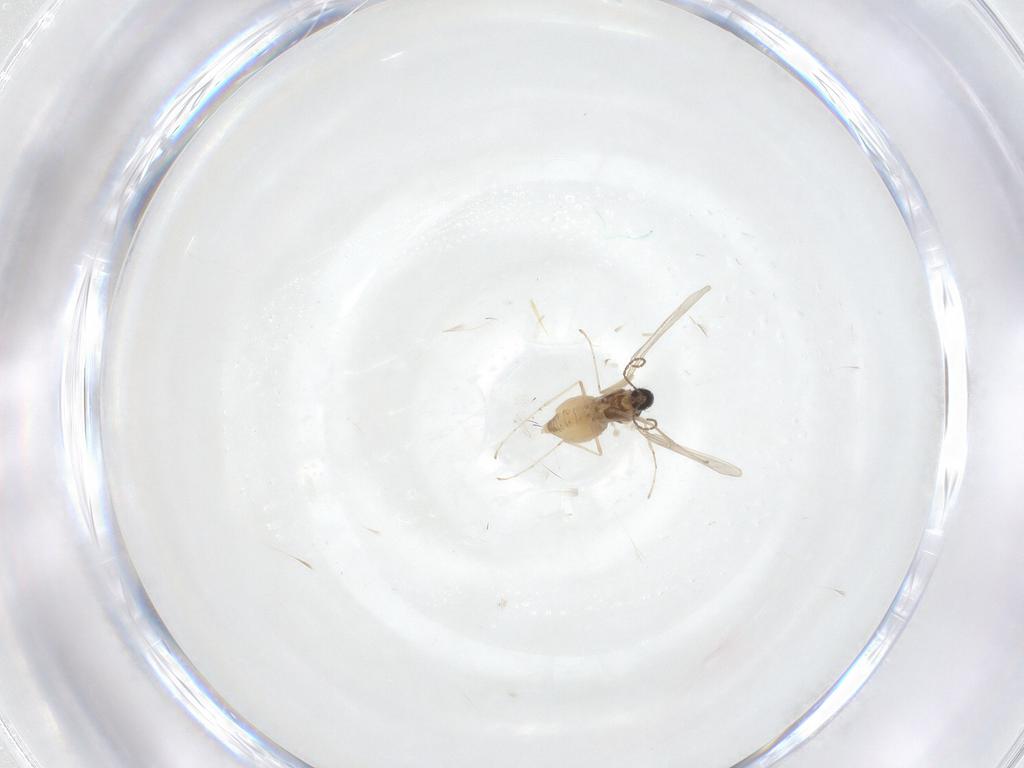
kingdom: Animalia
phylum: Arthropoda
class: Insecta
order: Diptera
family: Cecidomyiidae
